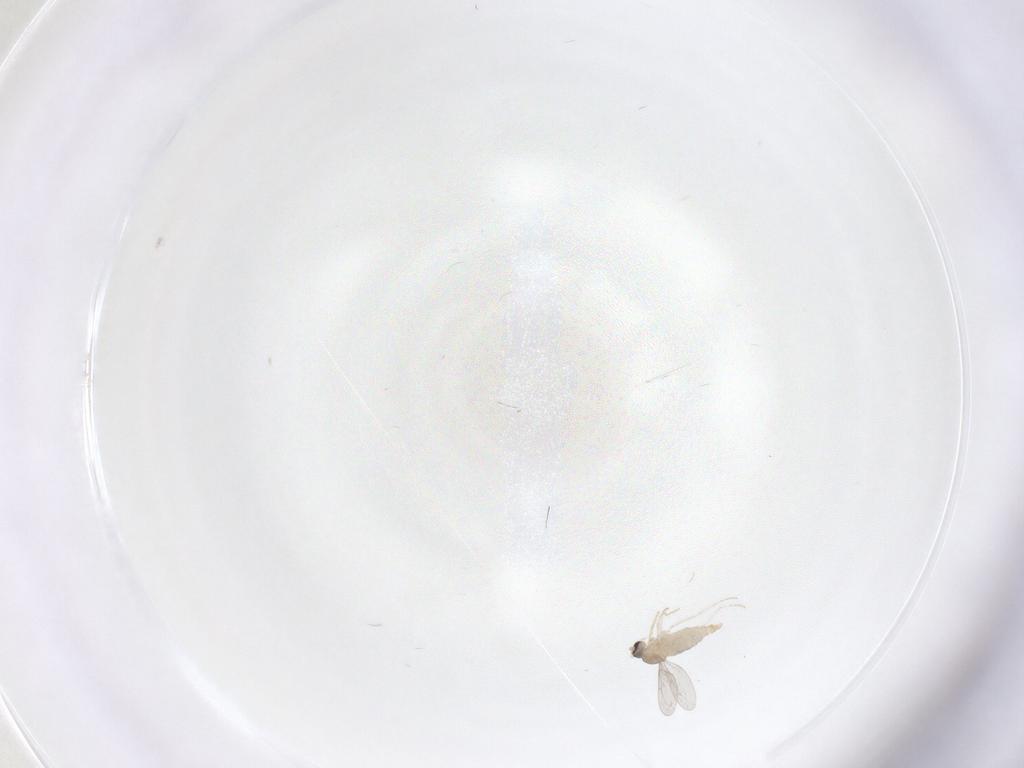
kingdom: Animalia
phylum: Arthropoda
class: Insecta
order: Diptera
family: Cecidomyiidae
